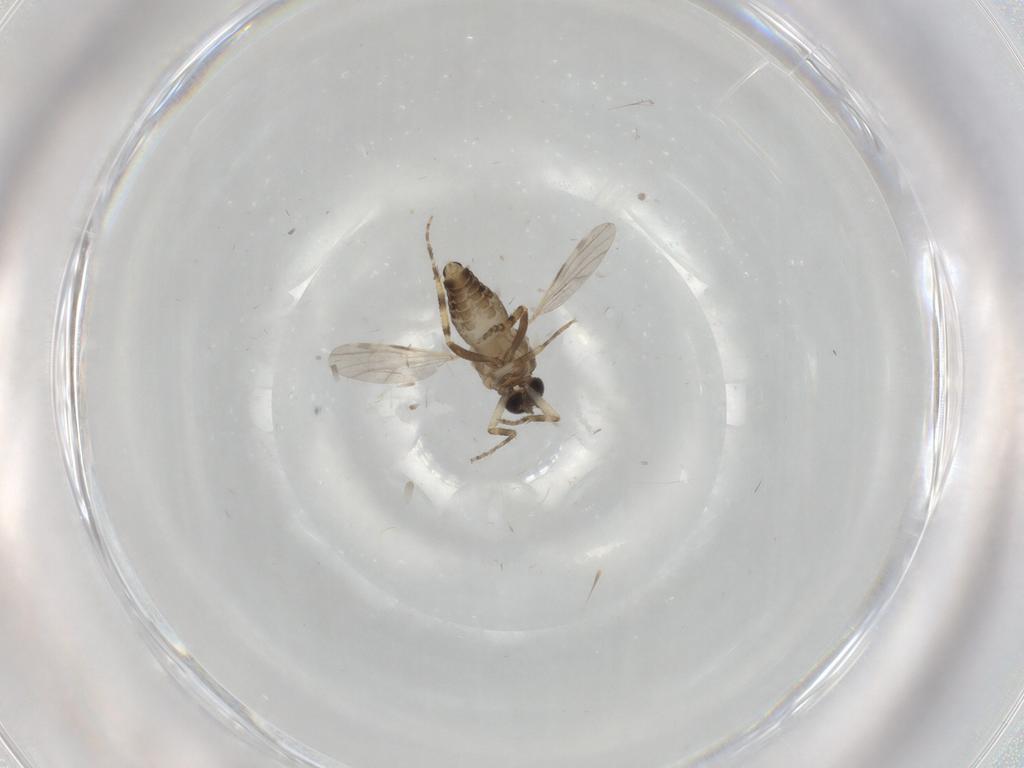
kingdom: Animalia
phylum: Arthropoda
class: Insecta
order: Diptera
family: Ceratopogonidae
